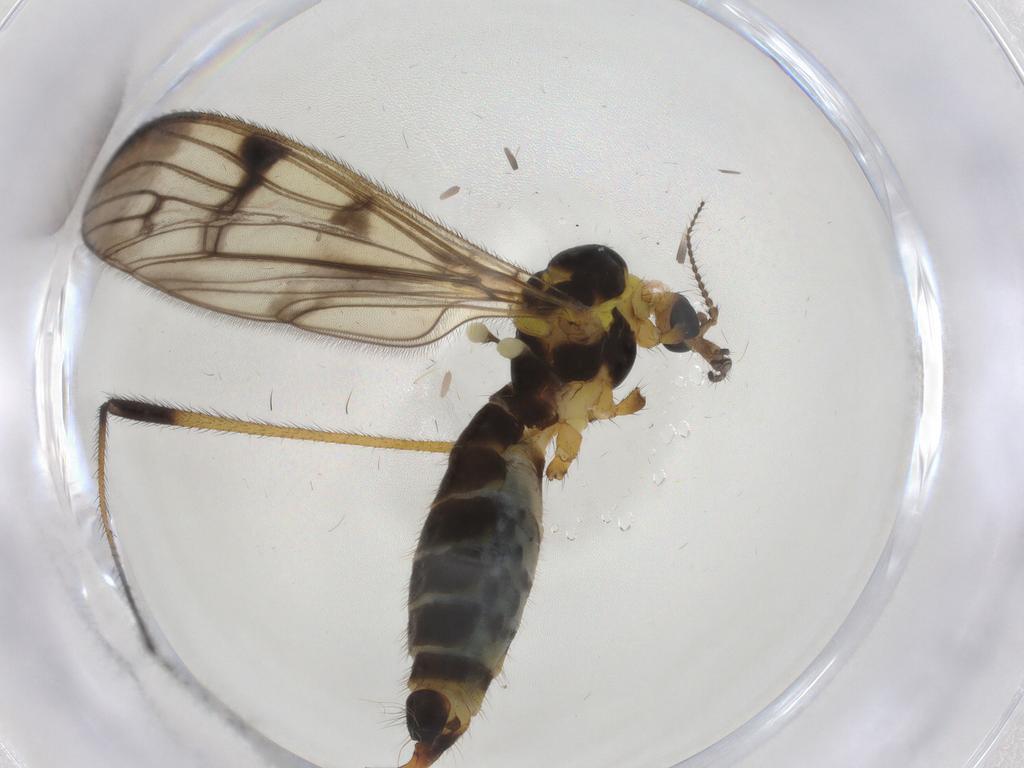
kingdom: Animalia
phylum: Arthropoda
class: Insecta
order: Diptera
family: Limoniidae
